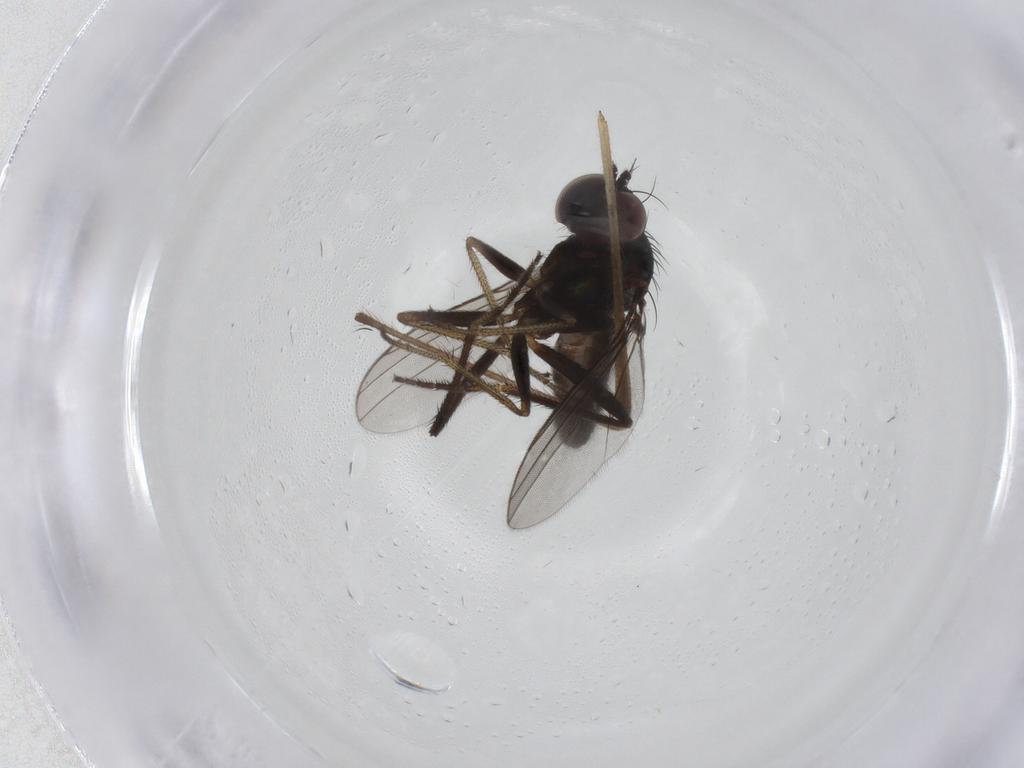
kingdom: Animalia
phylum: Arthropoda
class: Insecta
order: Diptera
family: Limoniidae
